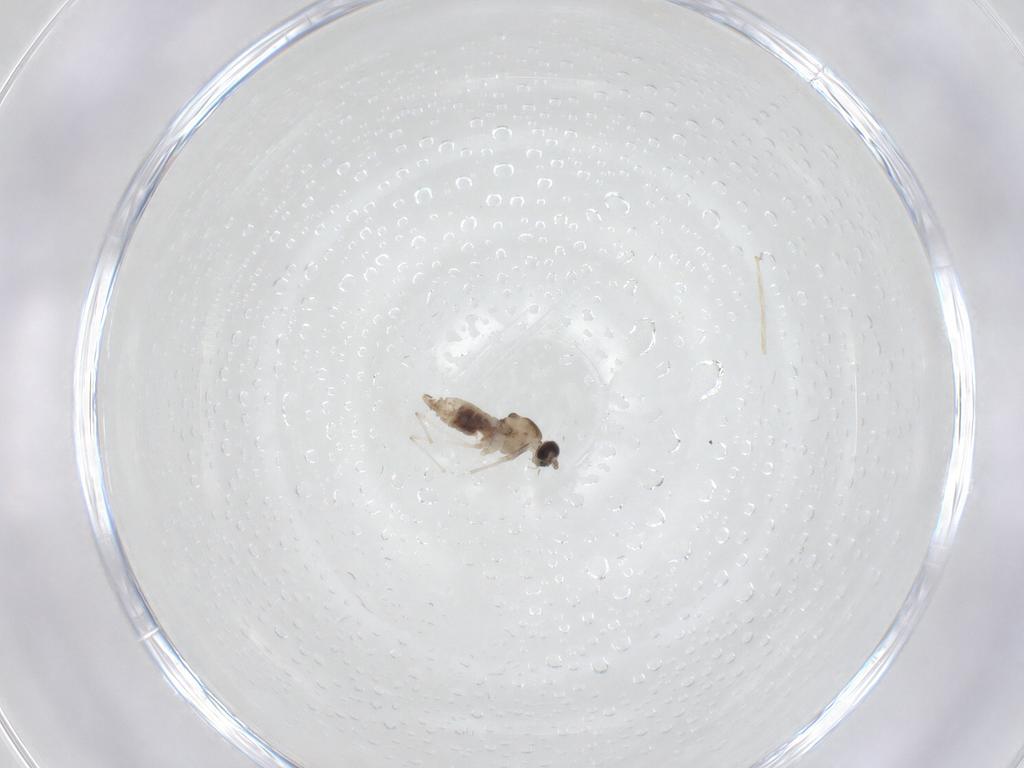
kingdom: Animalia
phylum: Arthropoda
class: Insecta
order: Diptera
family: Cecidomyiidae
